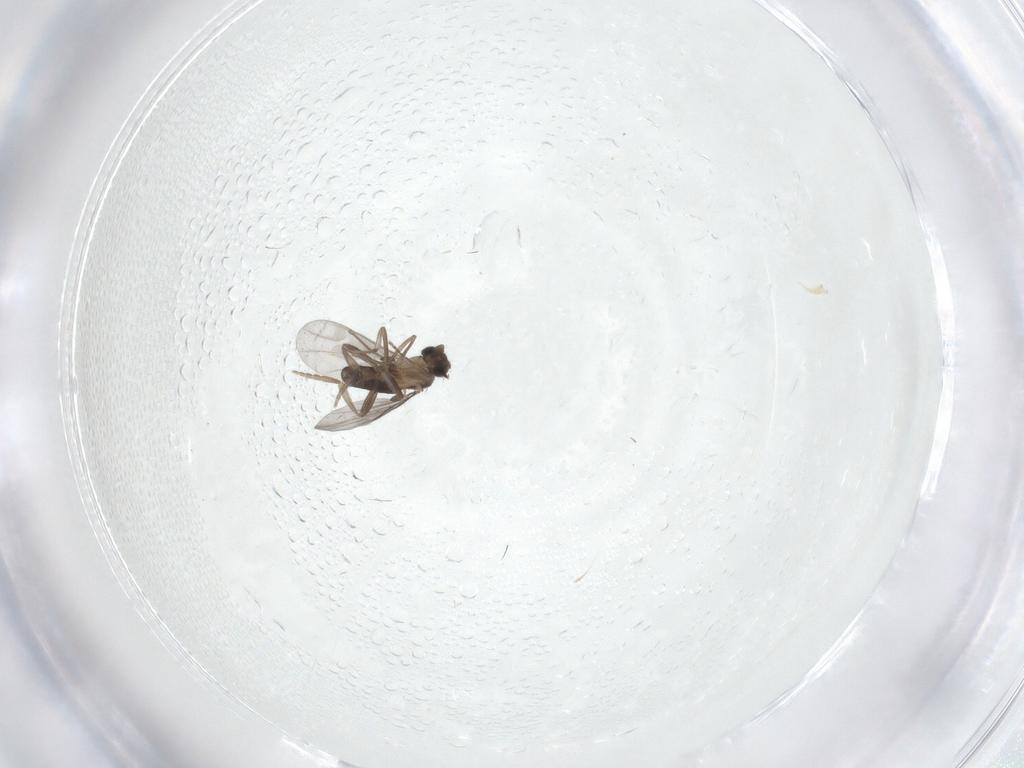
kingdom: Animalia
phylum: Arthropoda
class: Insecta
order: Diptera
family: Sciaridae
